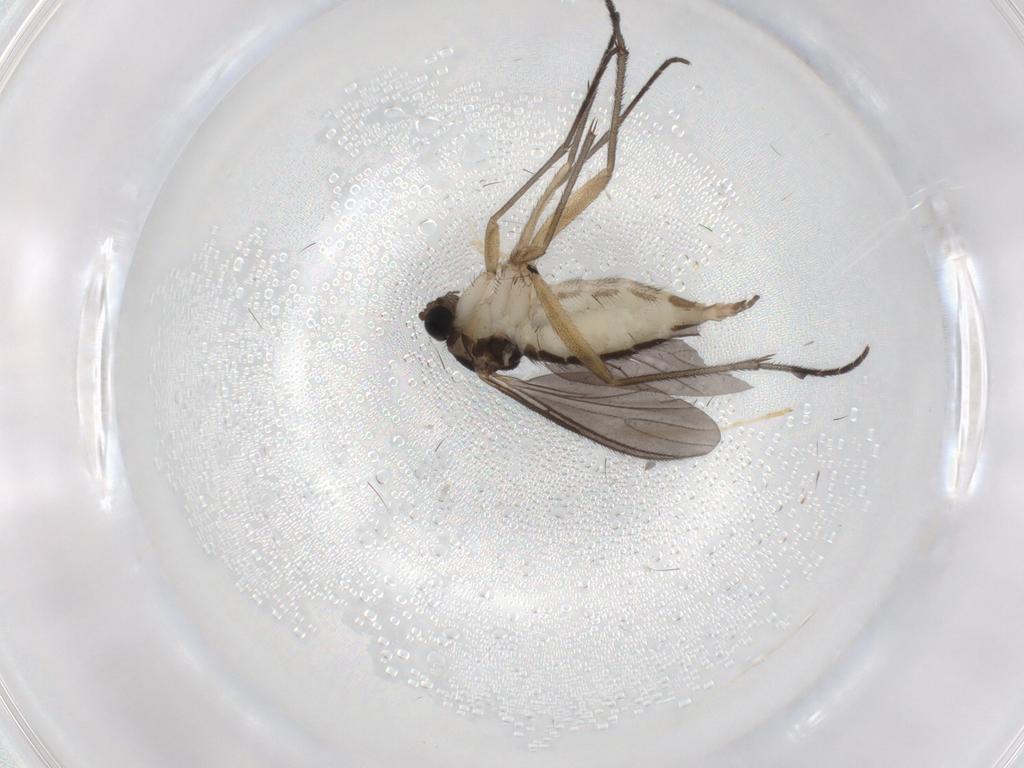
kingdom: Animalia
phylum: Arthropoda
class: Insecta
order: Diptera
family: Sciaridae
